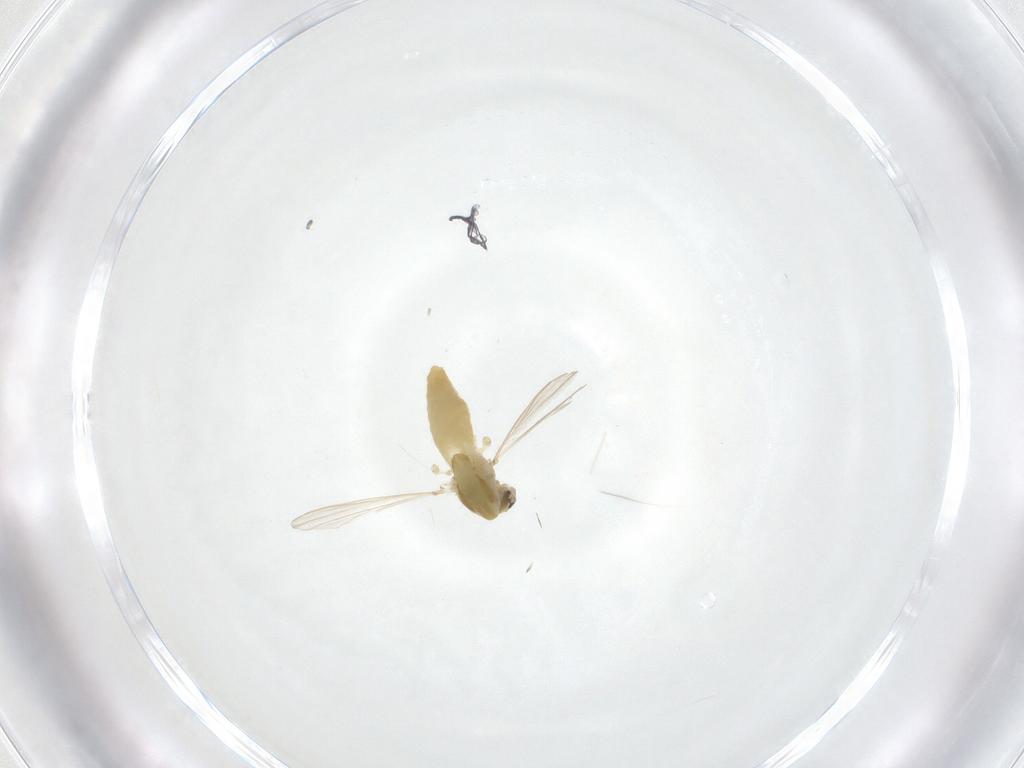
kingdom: Animalia
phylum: Arthropoda
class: Insecta
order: Diptera
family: Chironomidae
